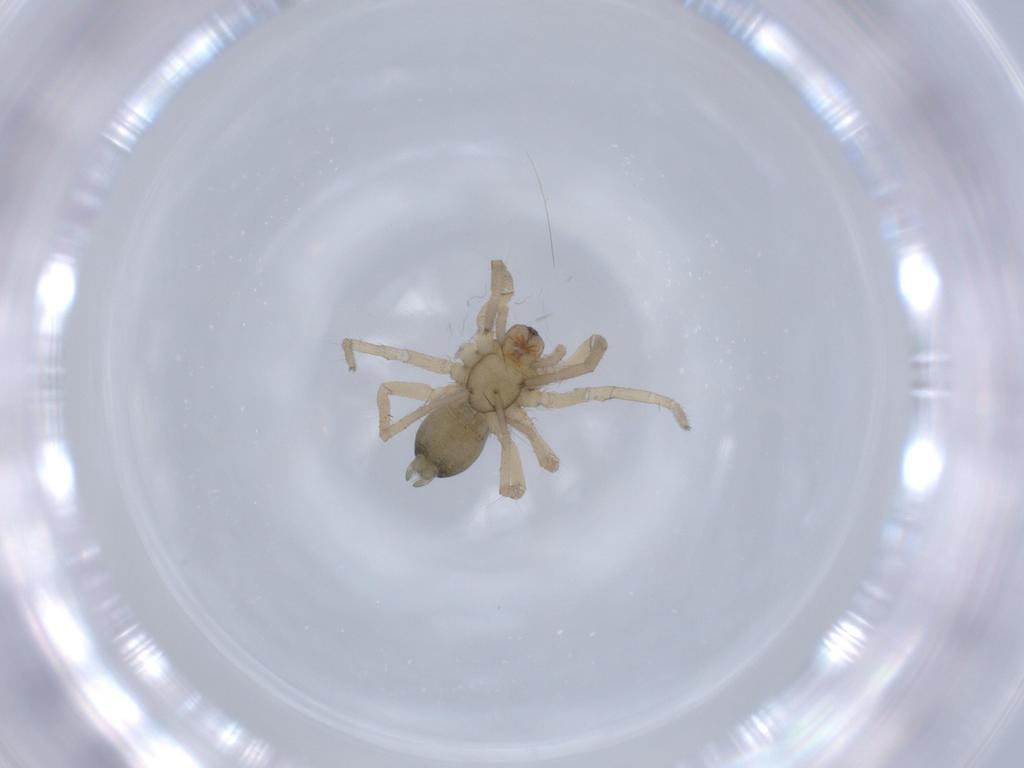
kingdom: Animalia
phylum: Arthropoda
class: Arachnida
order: Araneae
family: Miturgidae
